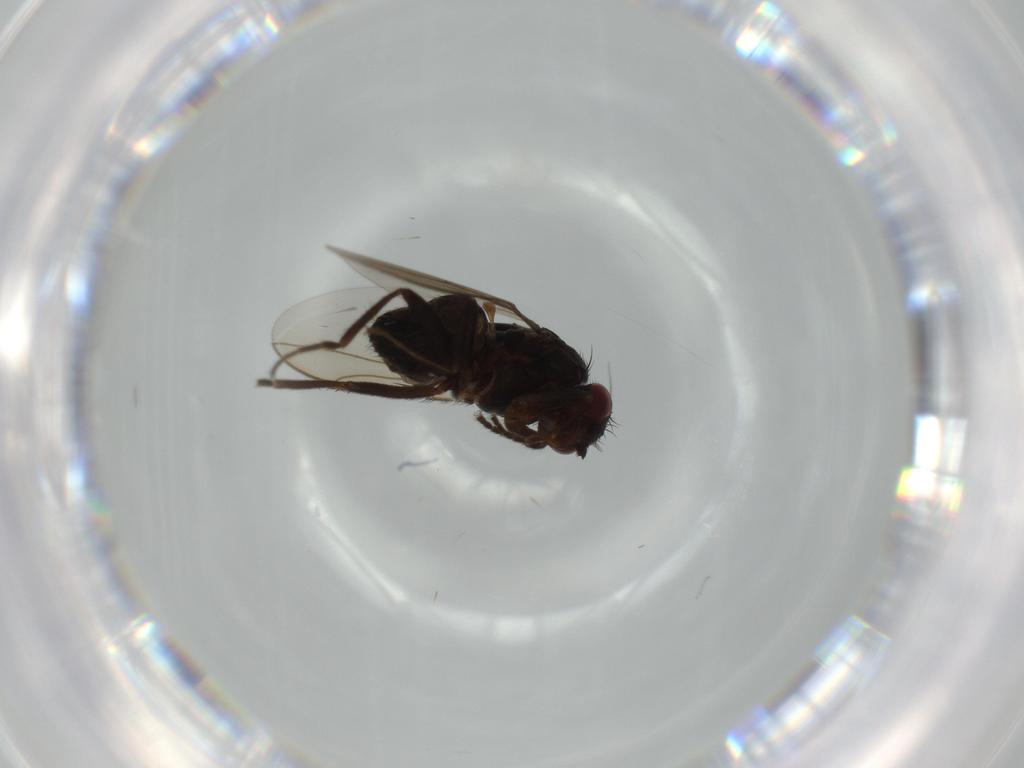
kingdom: Animalia
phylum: Arthropoda
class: Insecta
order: Diptera
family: Sphaeroceridae
